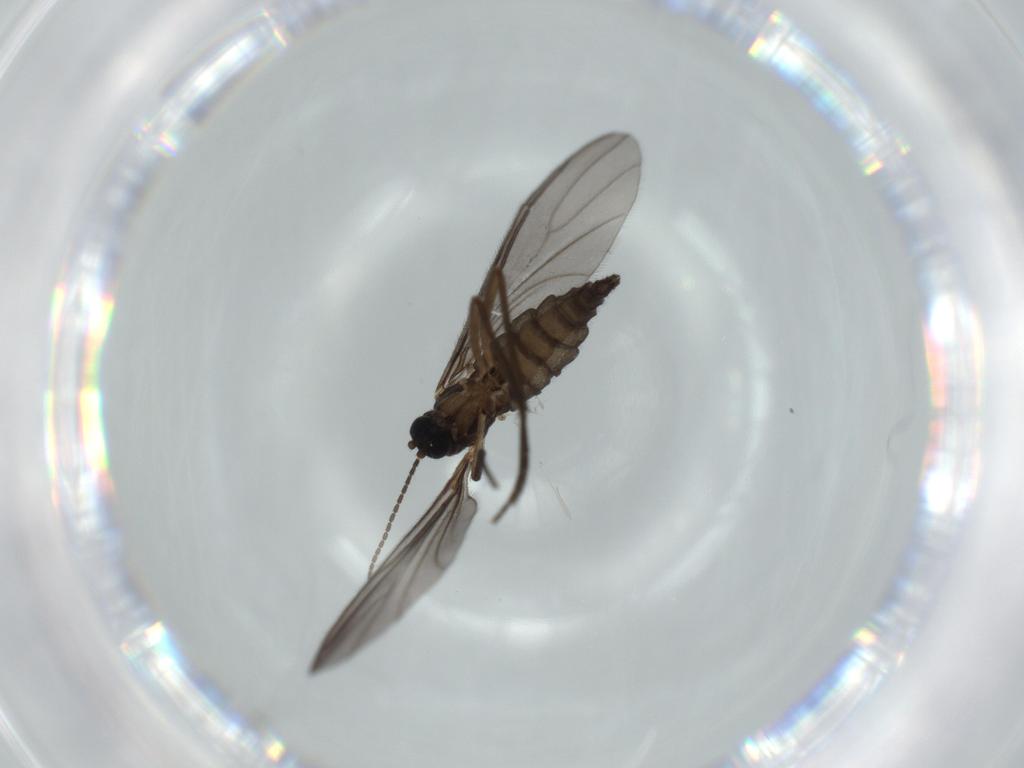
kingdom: Animalia
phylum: Arthropoda
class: Insecta
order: Diptera
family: Sciaridae
